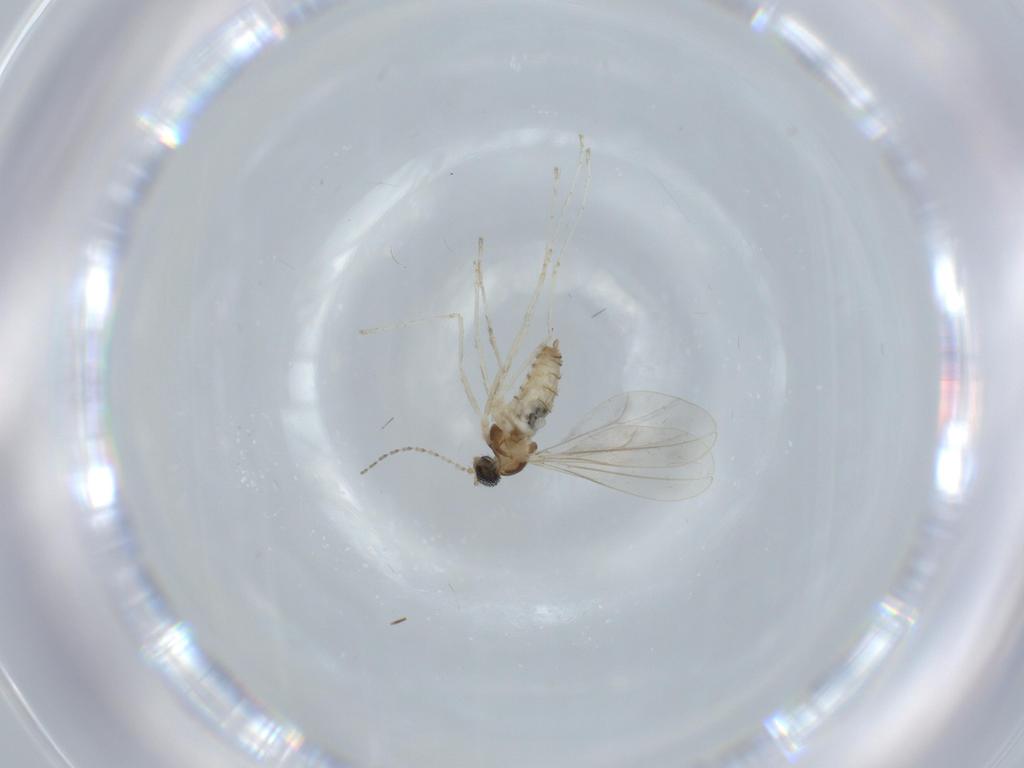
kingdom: Animalia
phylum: Arthropoda
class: Insecta
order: Diptera
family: Cecidomyiidae
